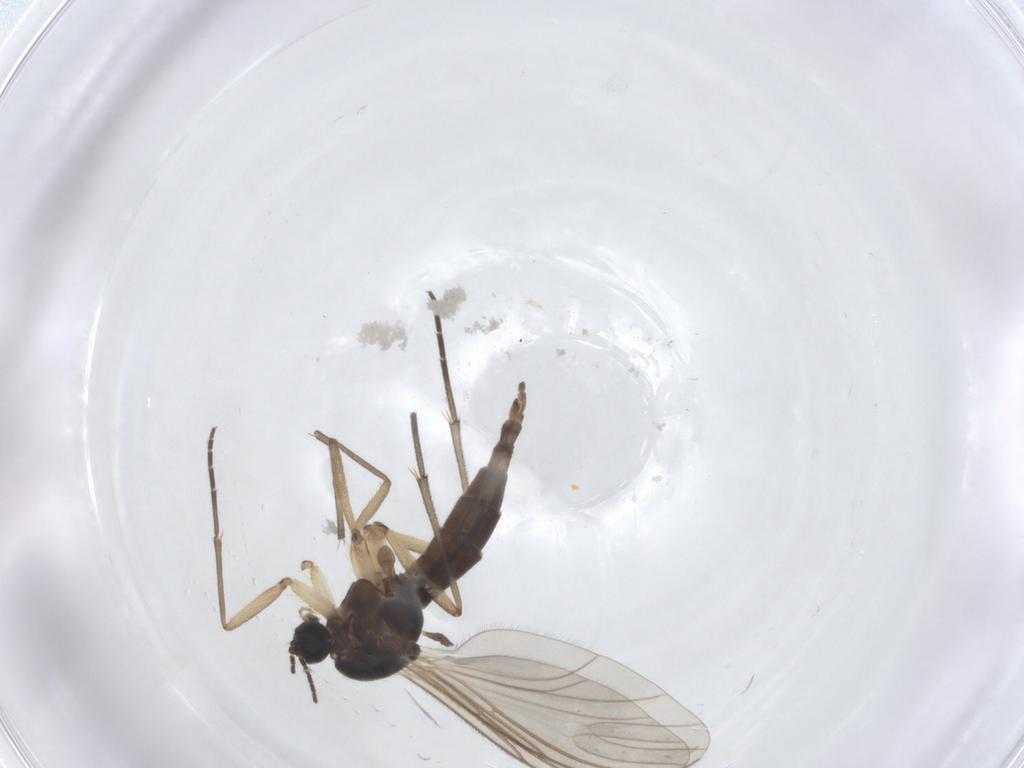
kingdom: Animalia
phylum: Arthropoda
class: Insecta
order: Diptera
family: Sciaridae
